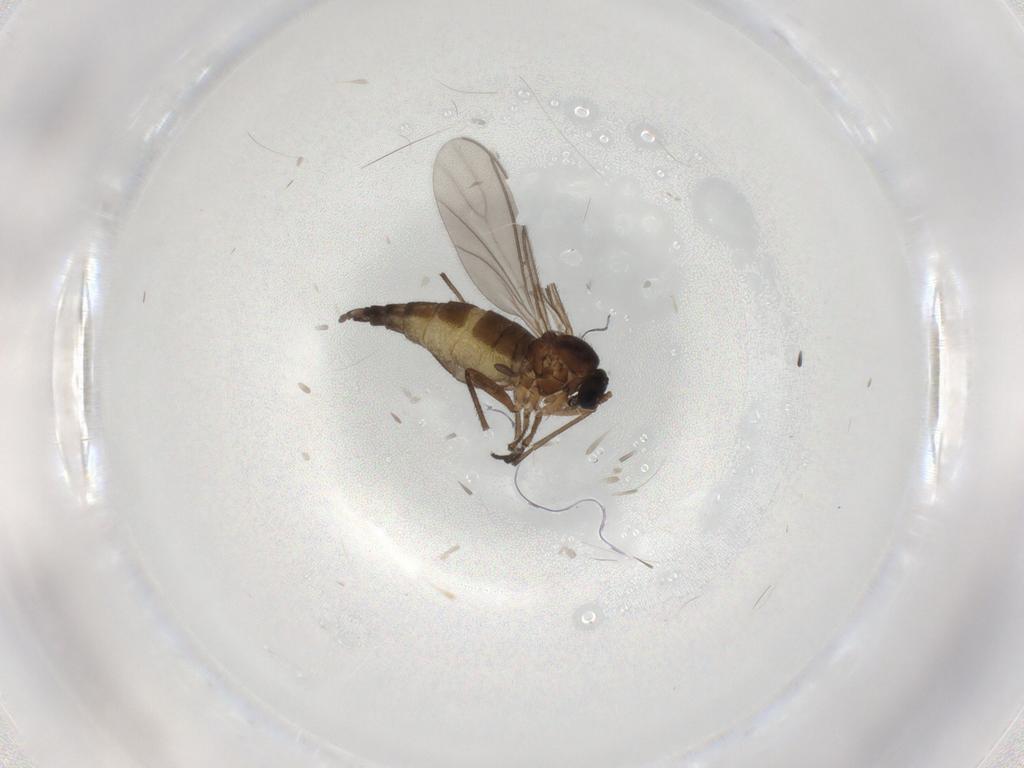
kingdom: Animalia
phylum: Arthropoda
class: Insecta
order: Diptera
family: Sciaridae
